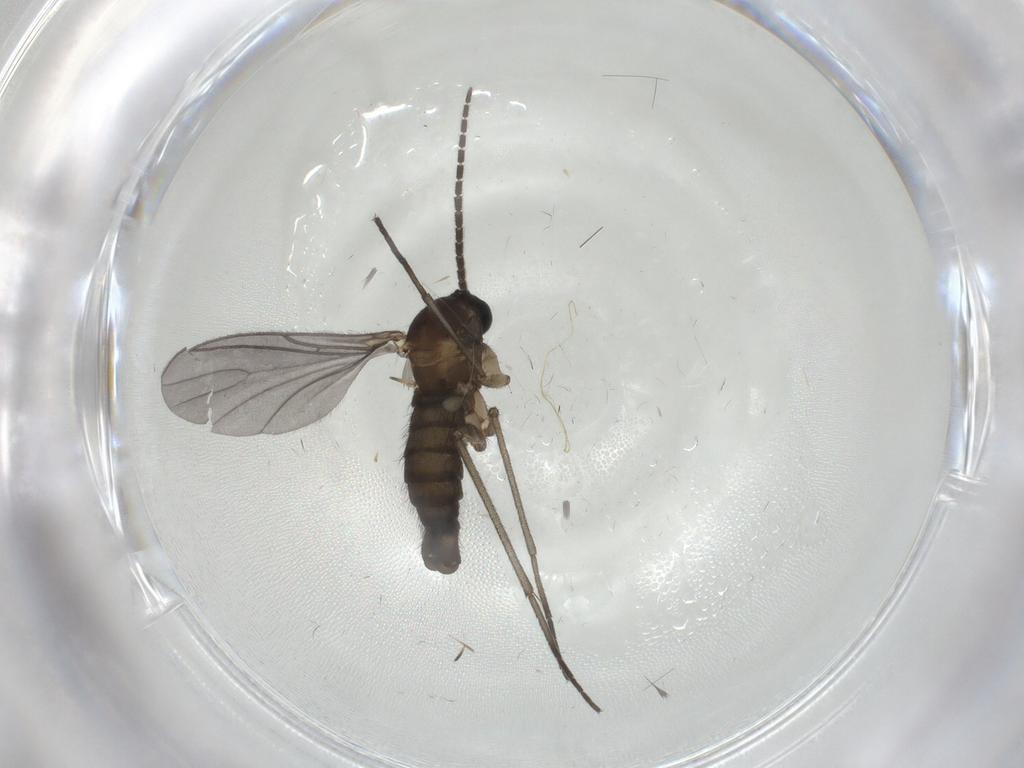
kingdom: Animalia
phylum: Arthropoda
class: Insecta
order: Diptera
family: Sciaridae
